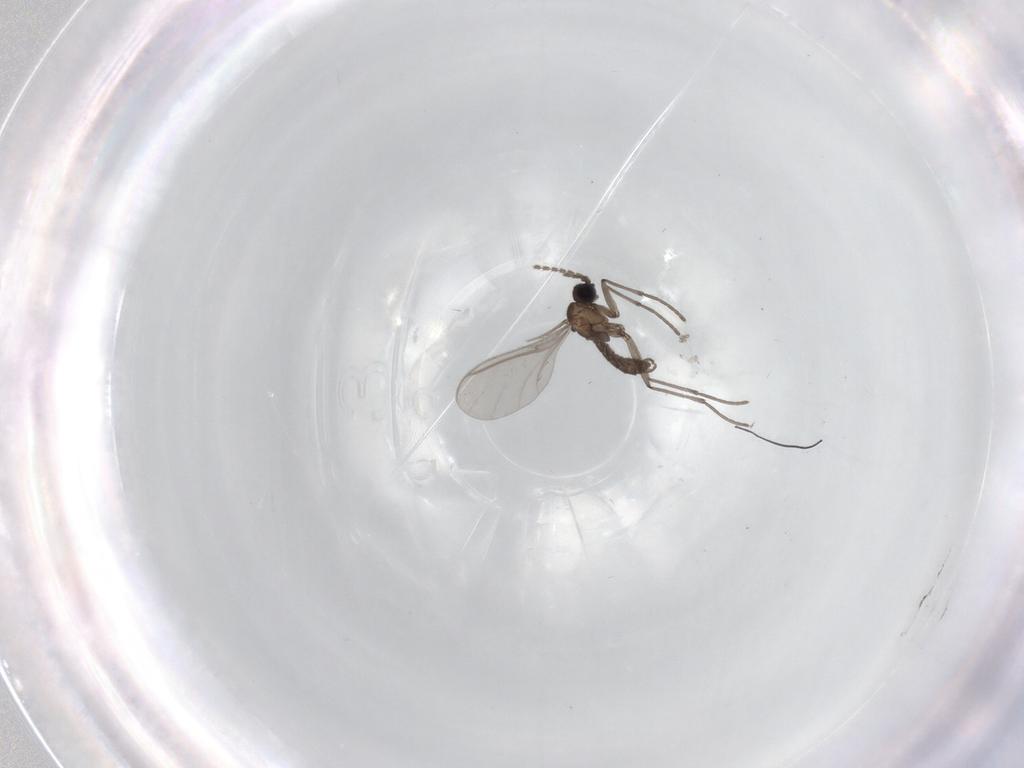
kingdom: Animalia
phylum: Arthropoda
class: Insecta
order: Diptera
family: Sciaridae
